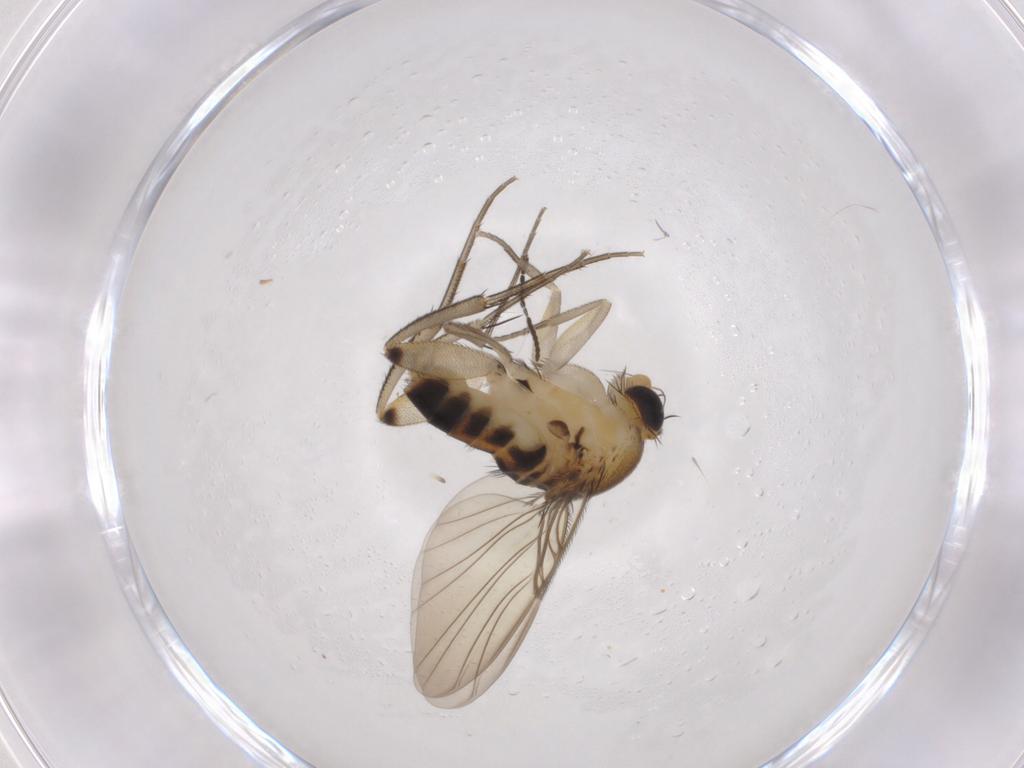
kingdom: Animalia
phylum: Arthropoda
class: Insecta
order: Diptera
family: Phoridae
